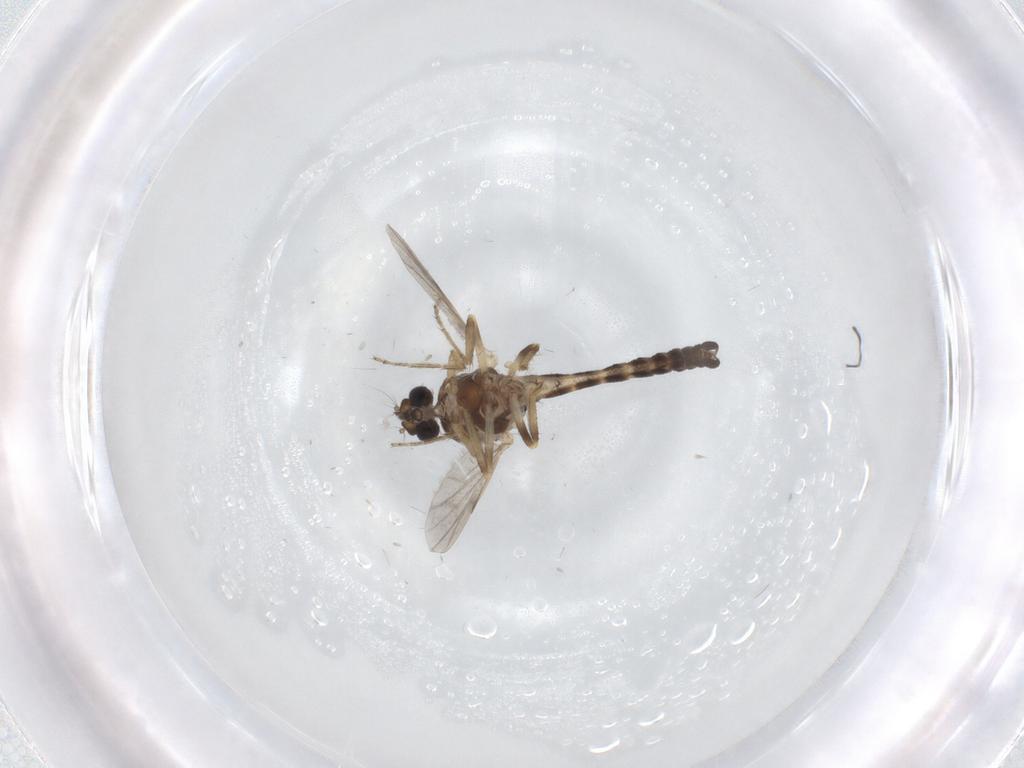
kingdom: Animalia
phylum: Arthropoda
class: Insecta
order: Diptera
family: Ceratopogonidae
